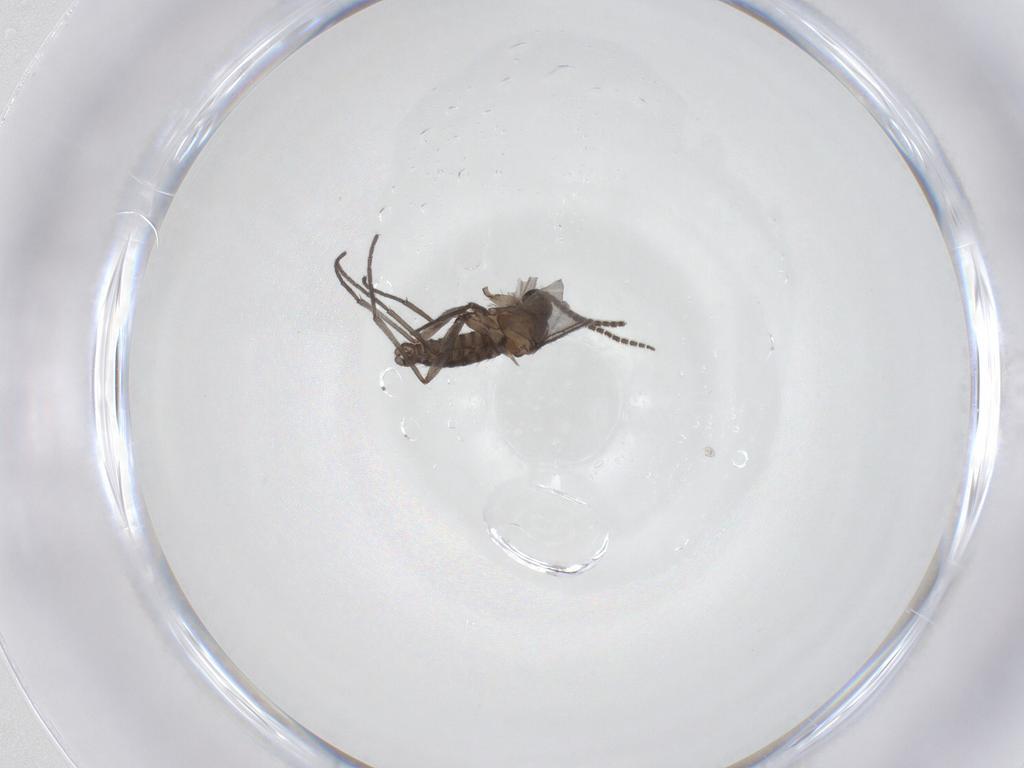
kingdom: Animalia
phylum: Arthropoda
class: Insecta
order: Diptera
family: Sciaridae
